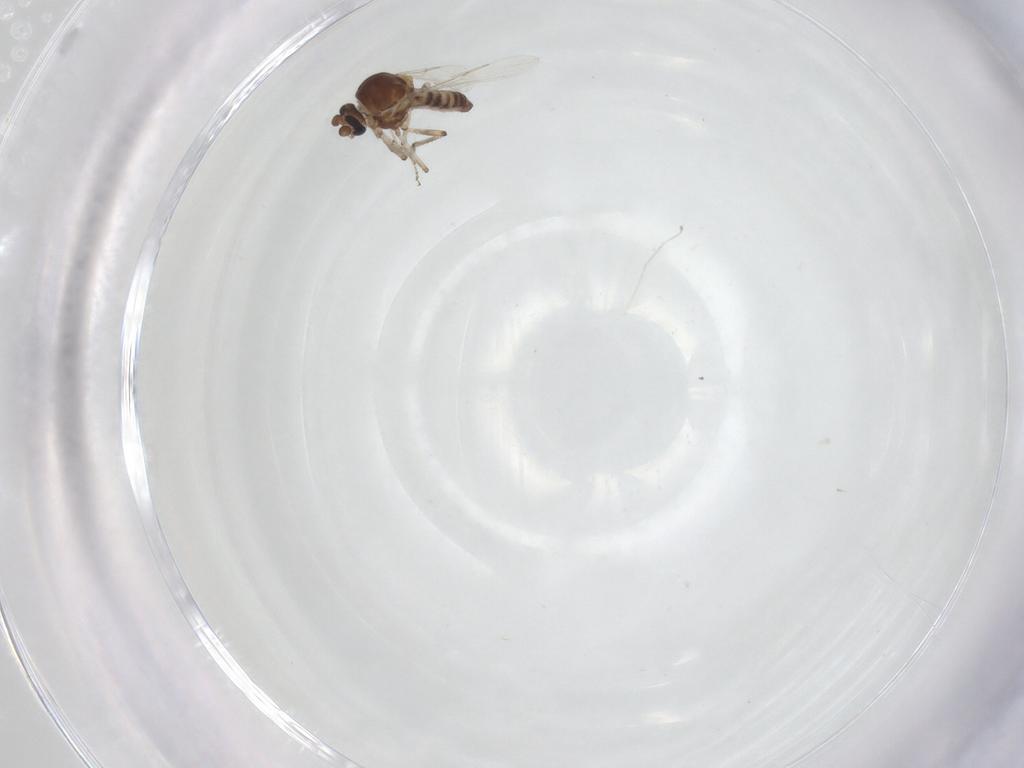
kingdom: Animalia
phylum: Arthropoda
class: Insecta
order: Diptera
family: Ceratopogonidae
